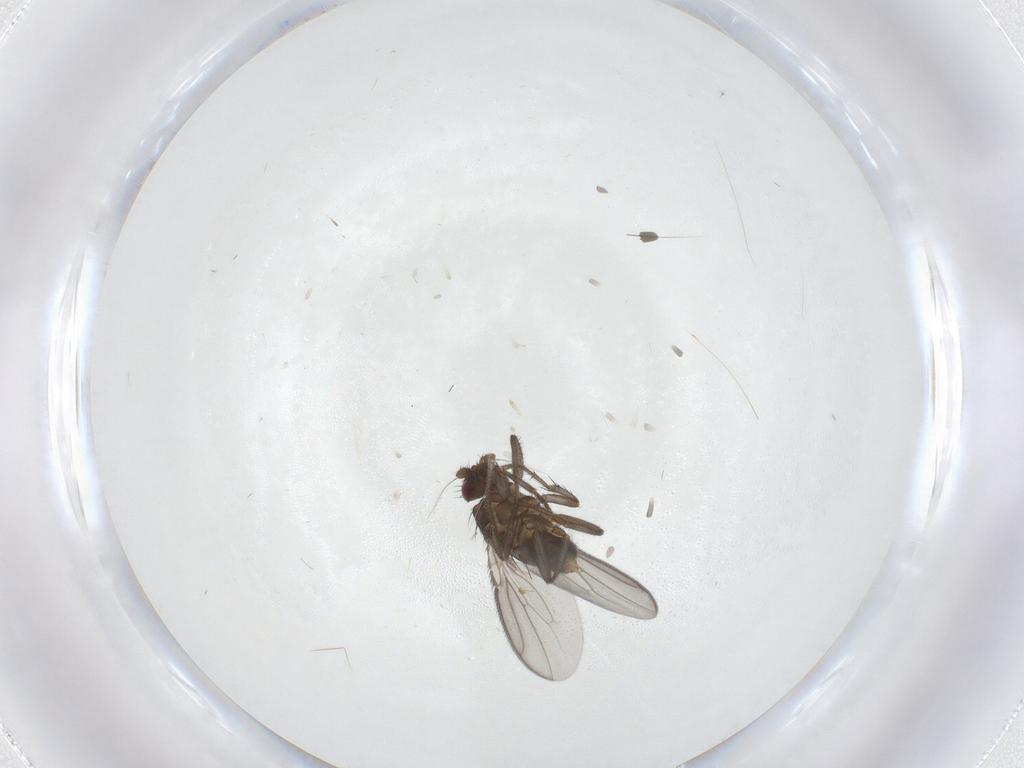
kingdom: Animalia
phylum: Arthropoda
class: Insecta
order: Diptera
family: Sphaeroceridae
